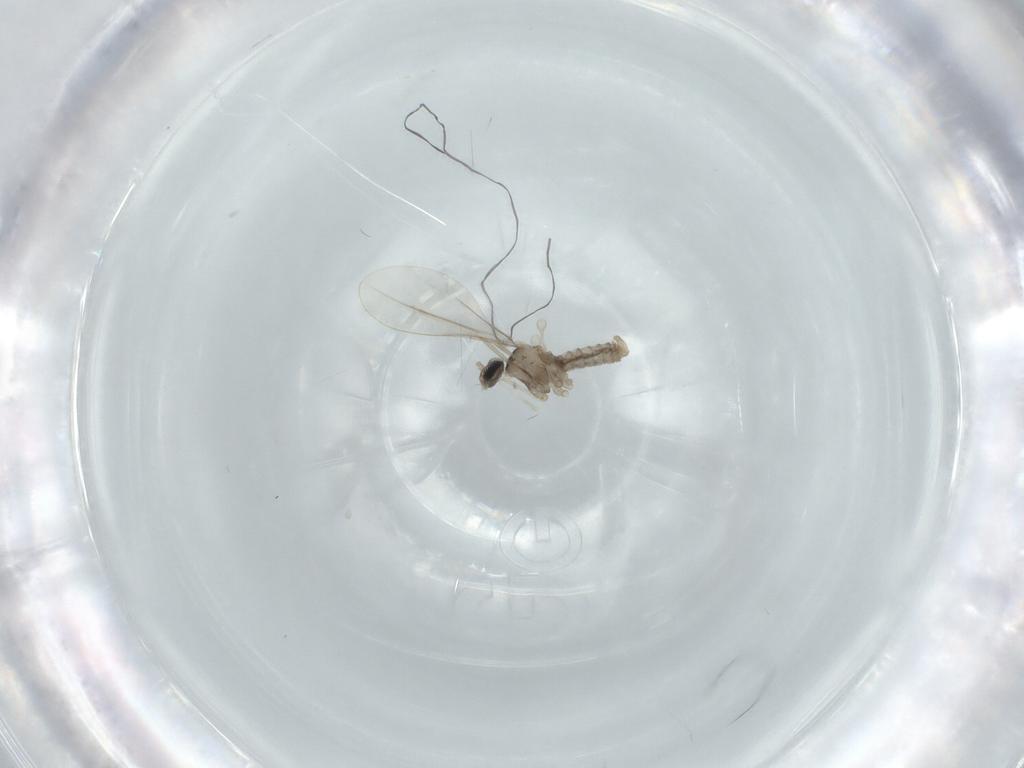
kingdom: Animalia
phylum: Arthropoda
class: Insecta
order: Diptera
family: Cecidomyiidae
